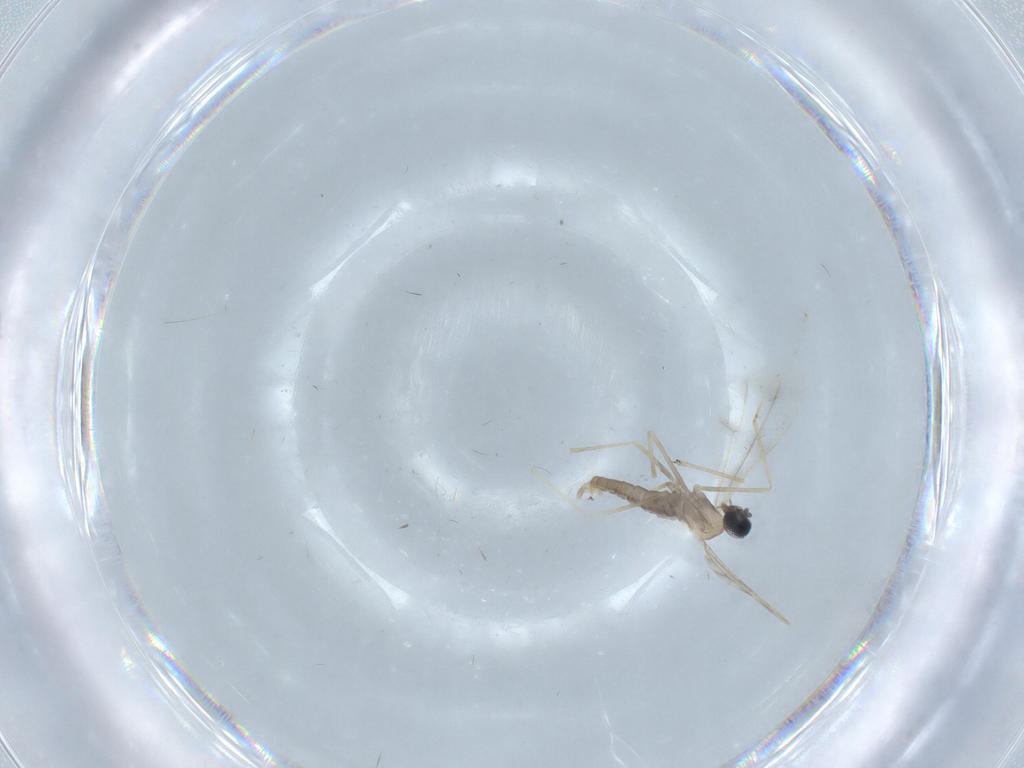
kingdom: Animalia
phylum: Arthropoda
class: Insecta
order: Diptera
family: Cecidomyiidae
